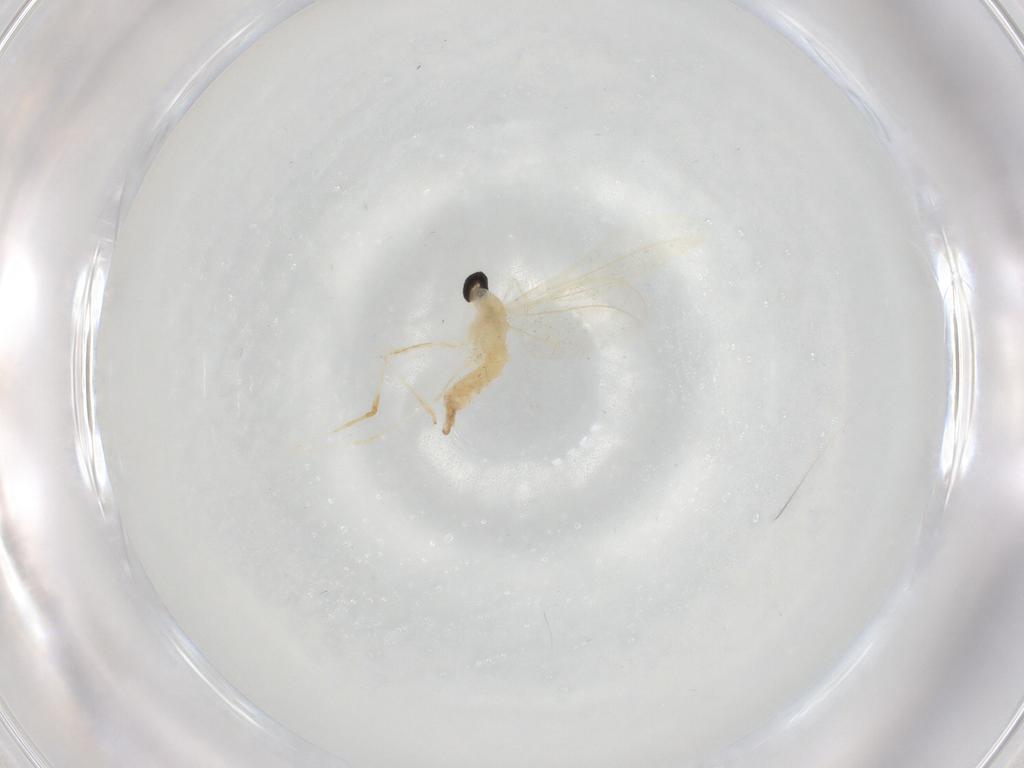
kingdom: Animalia
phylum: Arthropoda
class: Insecta
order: Diptera
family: Cecidomyiidae
